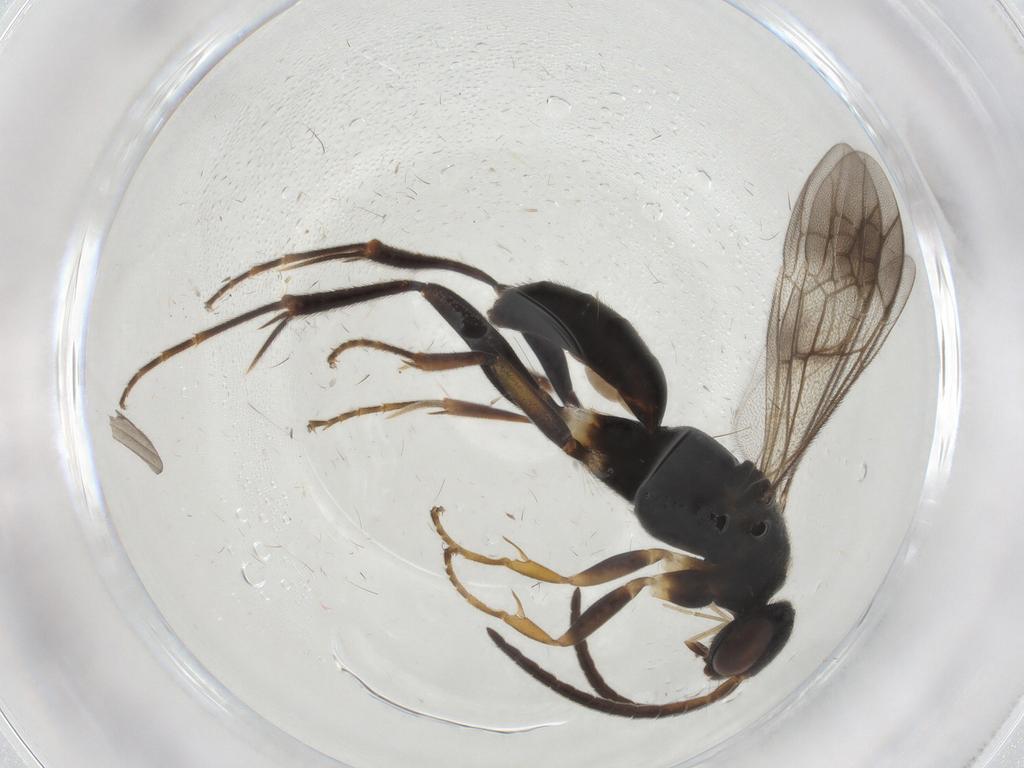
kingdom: Animalia
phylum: Arthropoda
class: Insecta
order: Hymenoptera
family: Pompilidae
